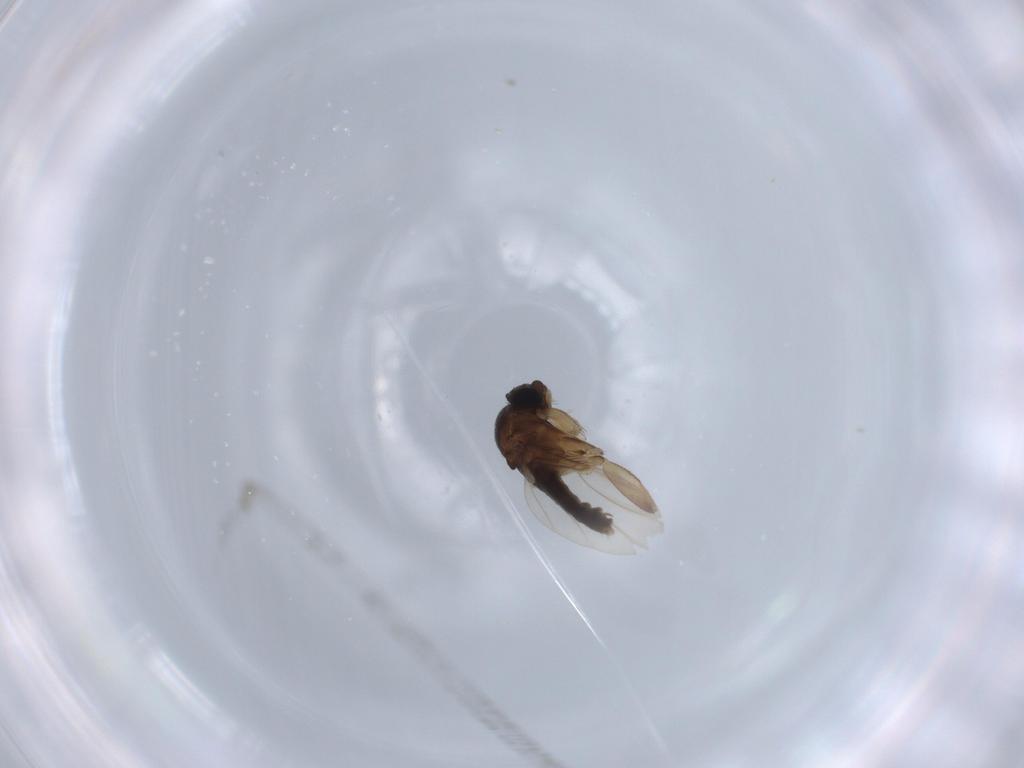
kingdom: Animalia
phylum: Arthropoda
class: Insecta
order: Diptera
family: Phoridae
